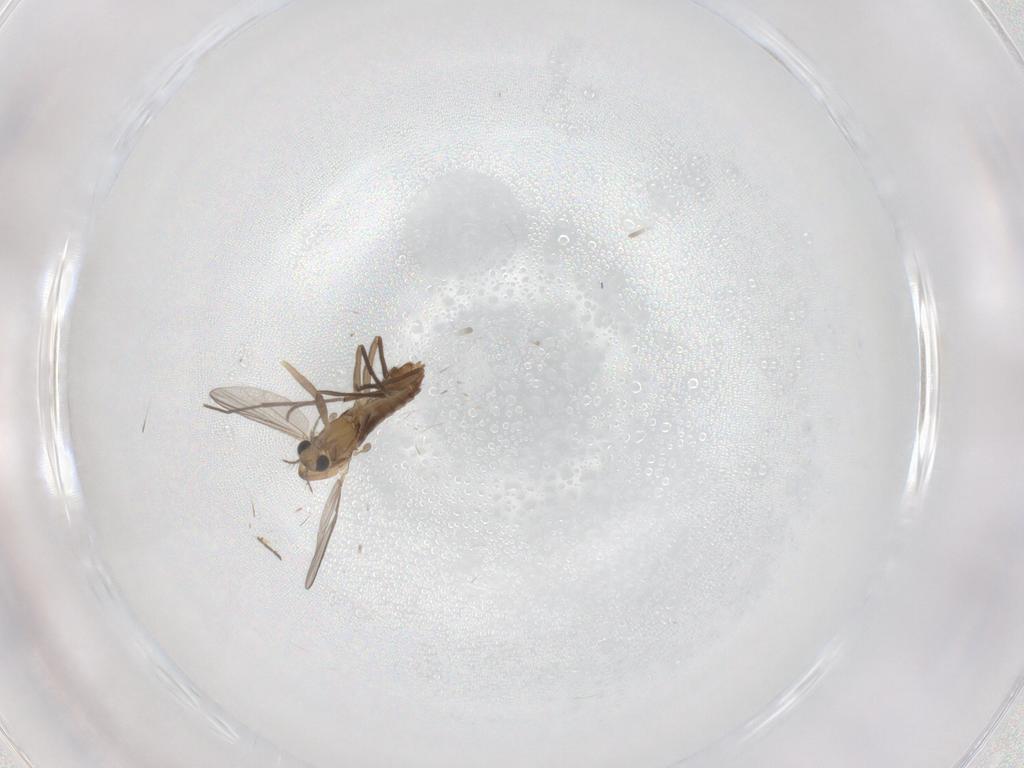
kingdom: Animalia
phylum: Arthropoda
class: Insecta
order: Diptera
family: Chironomidae
